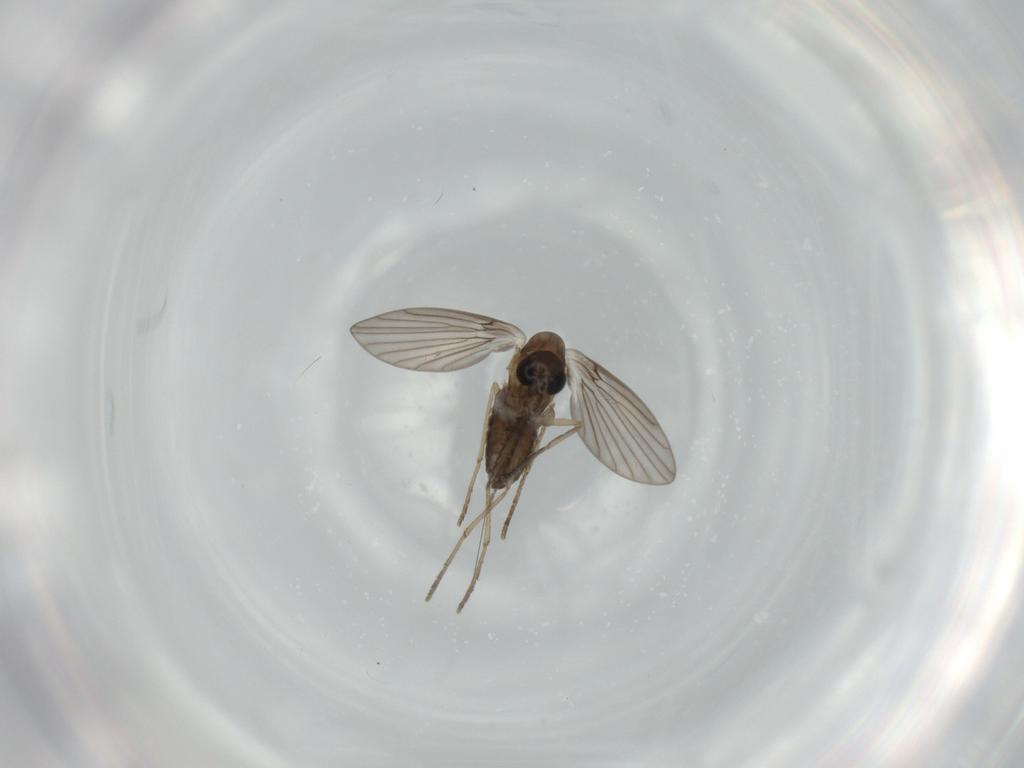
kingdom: Animalia
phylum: Arthropoda
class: Insecta
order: Diptera
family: Psychodidae
